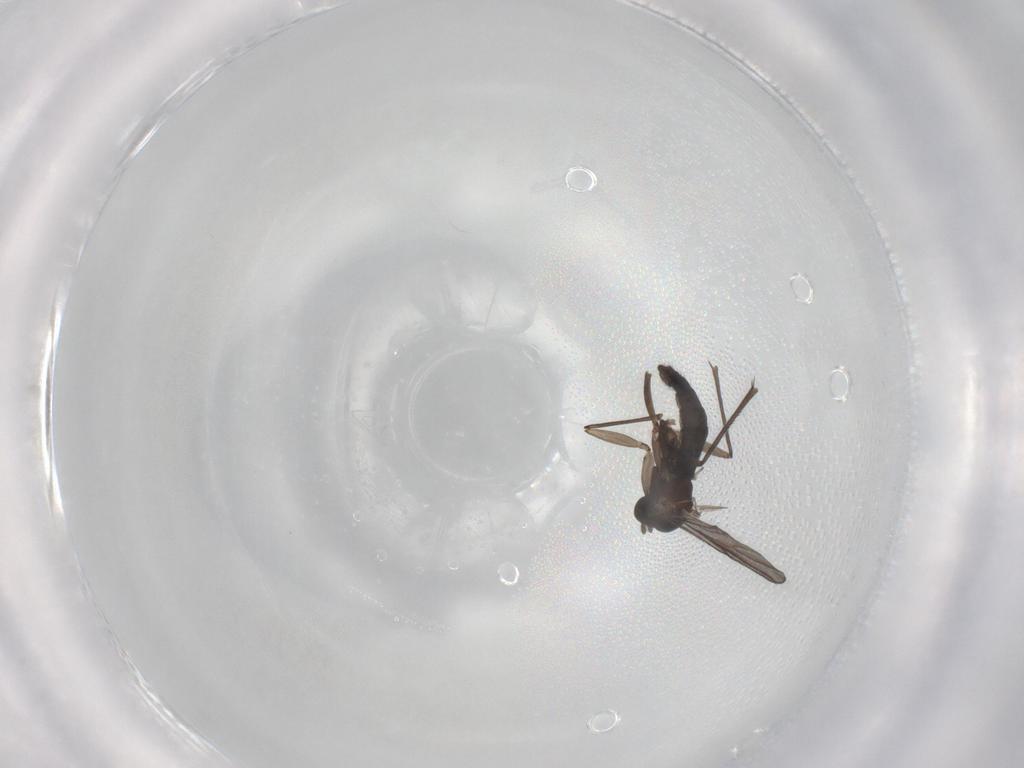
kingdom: Animalia
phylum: Arthropoda
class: Insecta
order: Diptera
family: Sciaridae
